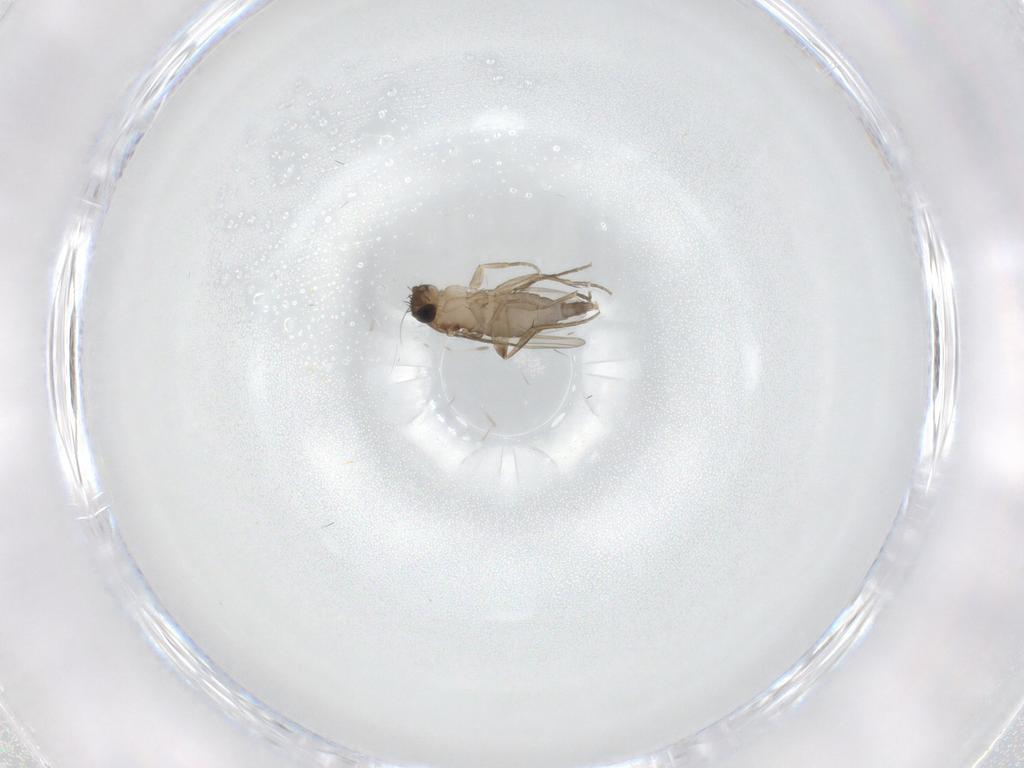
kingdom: Animalia
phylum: Arthropoda
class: Insecta
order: Diptera
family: Phoridae
